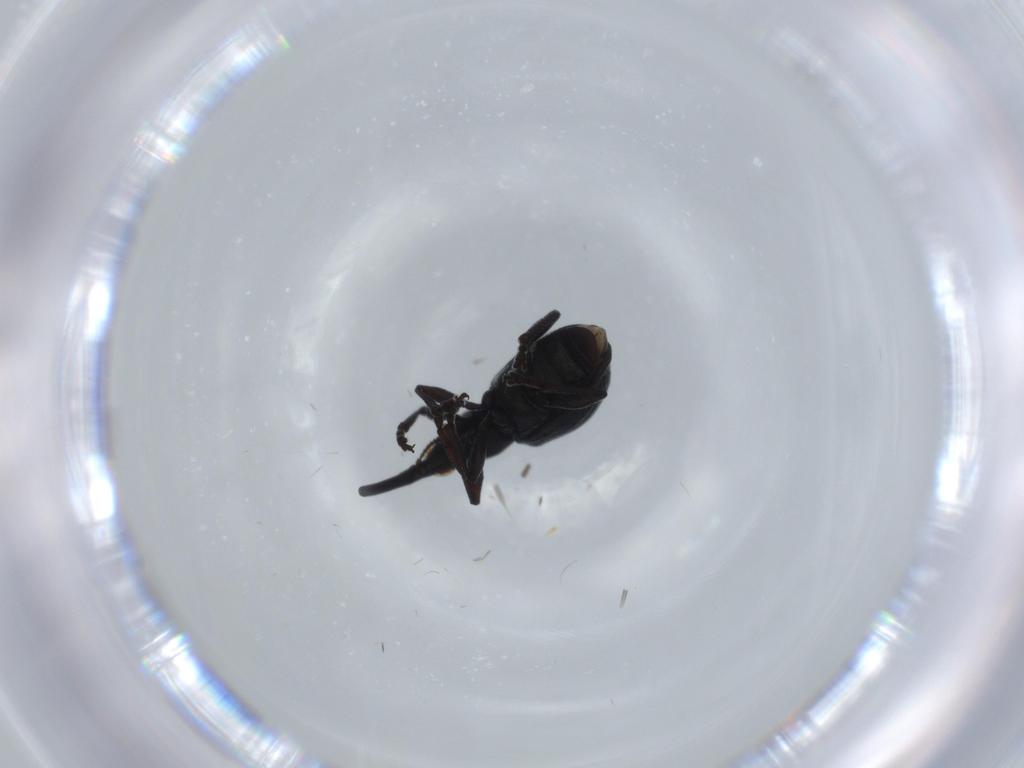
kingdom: Animalia
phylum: Arthropoda
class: Insecta
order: Coleoptera
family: Brentidae
